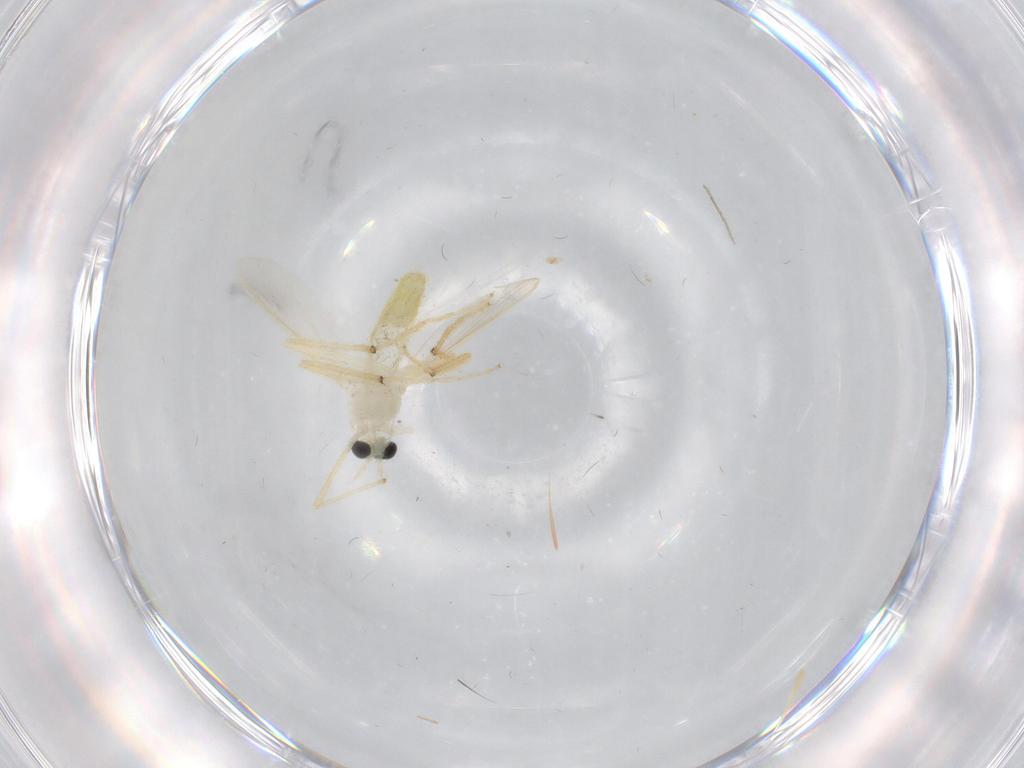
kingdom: Animalia
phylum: Arthropoda
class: Insecta
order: Diptera
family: Chironomidae
